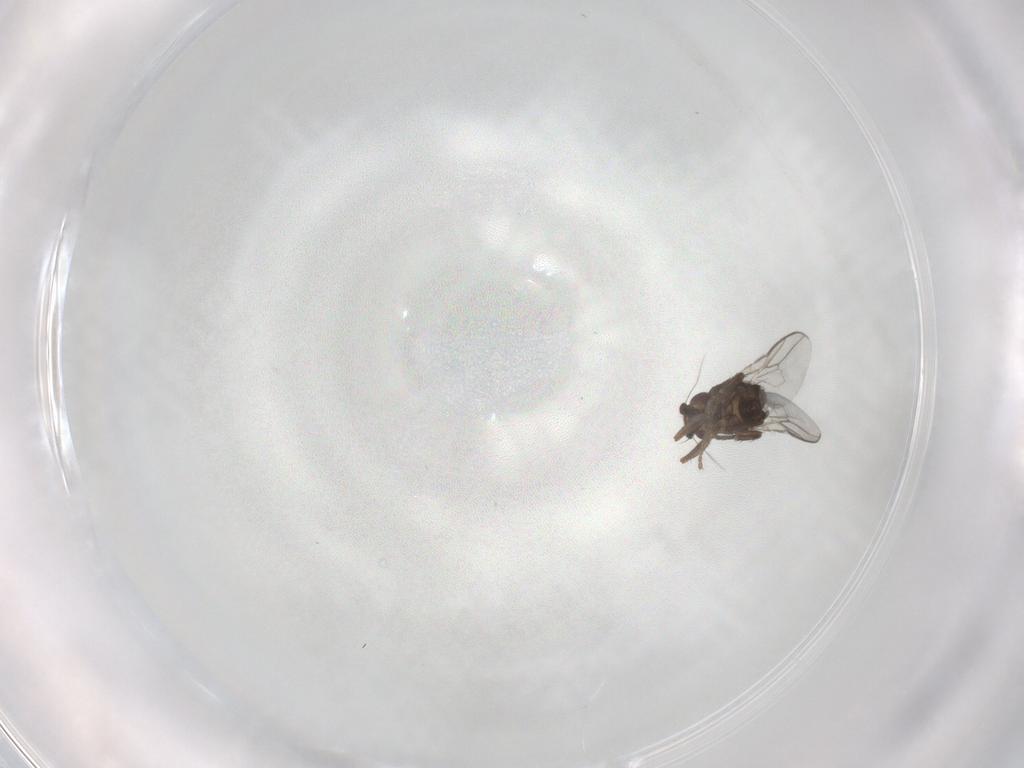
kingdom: Animalia
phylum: Arthropoda
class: Insecta
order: Diptera
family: Sphaeroceridae
